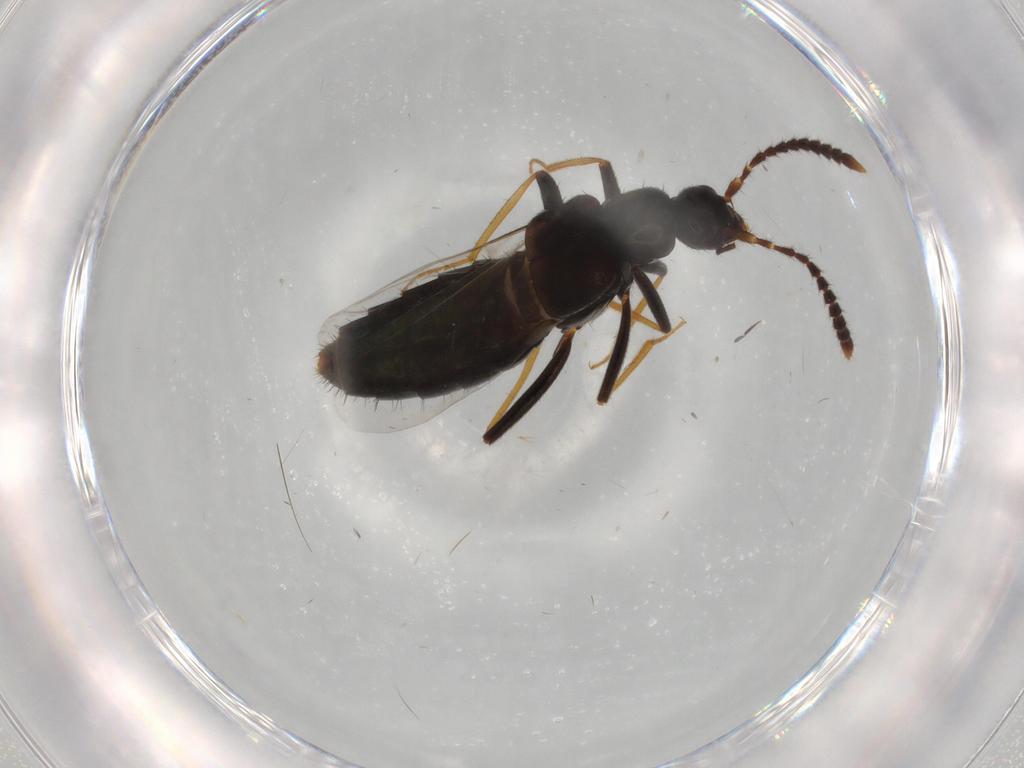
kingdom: Animalia
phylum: Arthropoda
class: Insecta
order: Coleoptera
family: Staphylinidae
